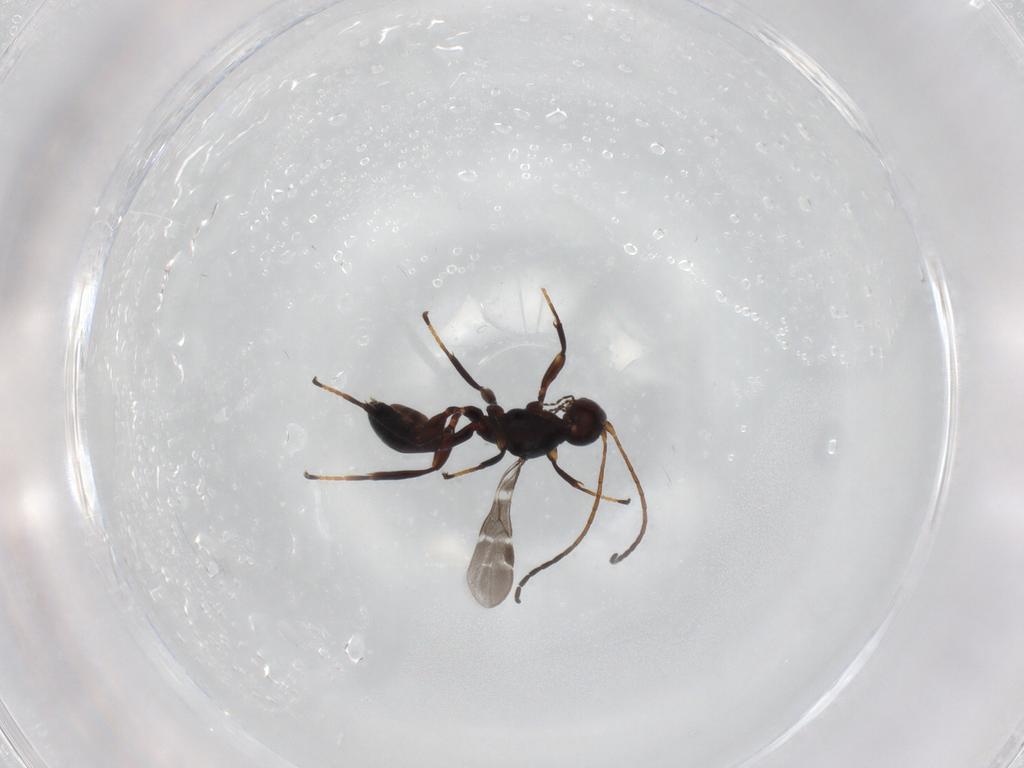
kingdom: Animalia
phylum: Arthropoda
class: Insecta
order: Hymenoptera
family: Braconidae
